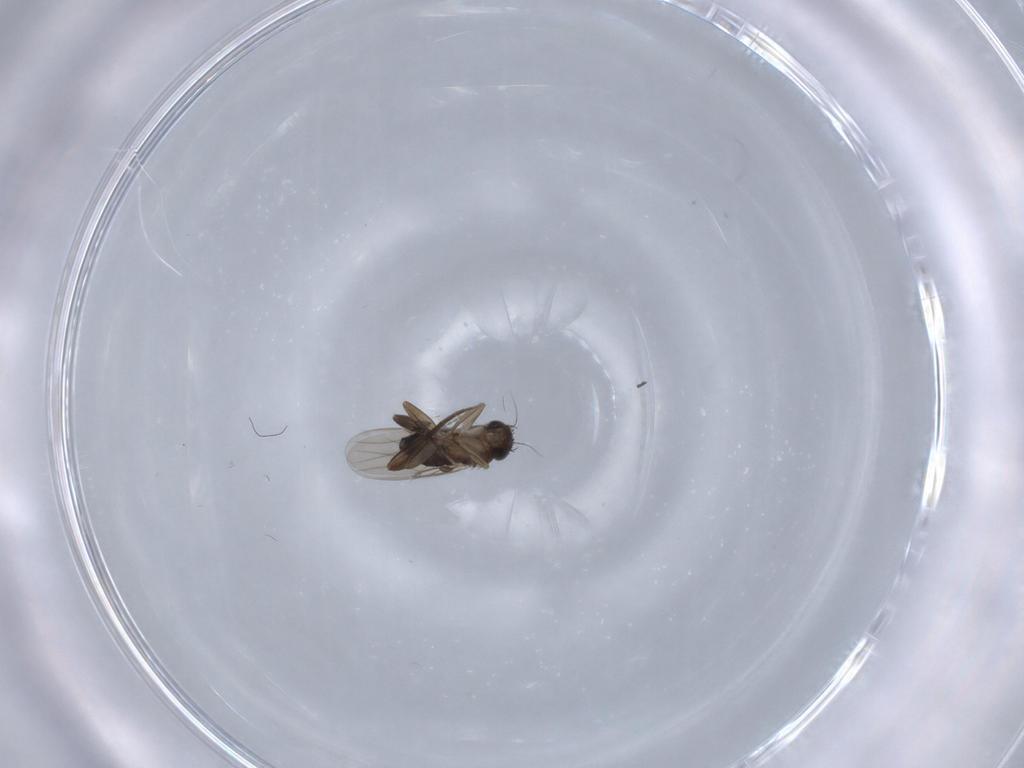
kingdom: Animalia
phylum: Arthropoda
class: Insecta
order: Diptera
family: Phoridae
